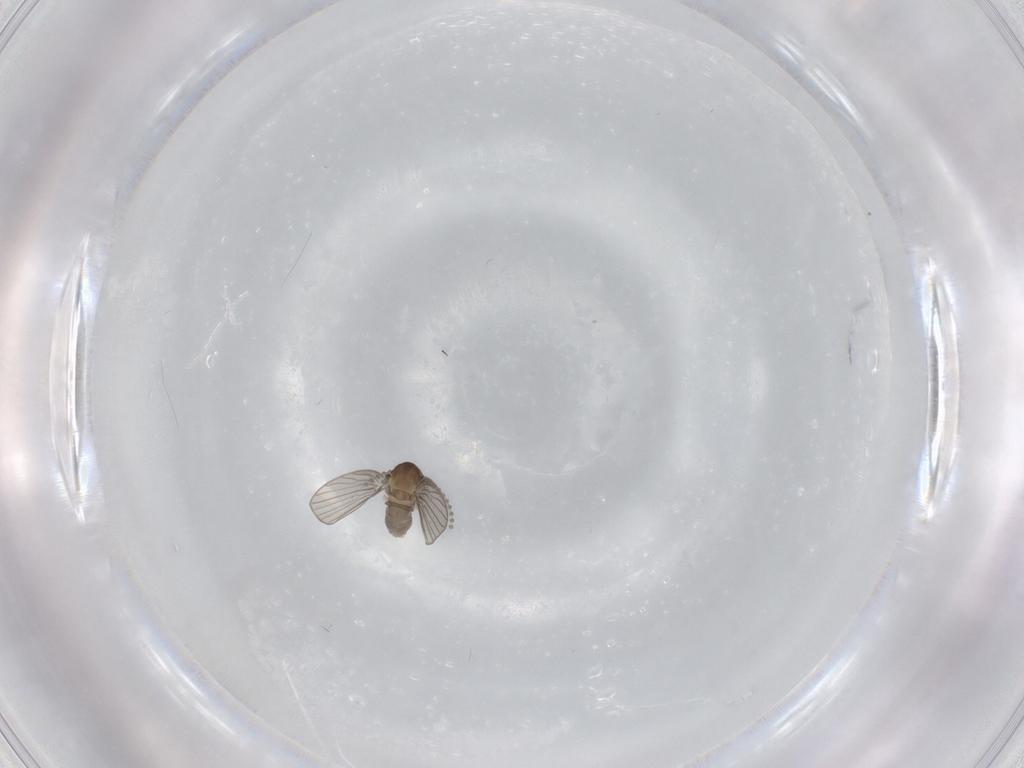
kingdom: Animalia
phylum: Arthropoda
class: Insecta
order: Diptera
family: Psychodidae
